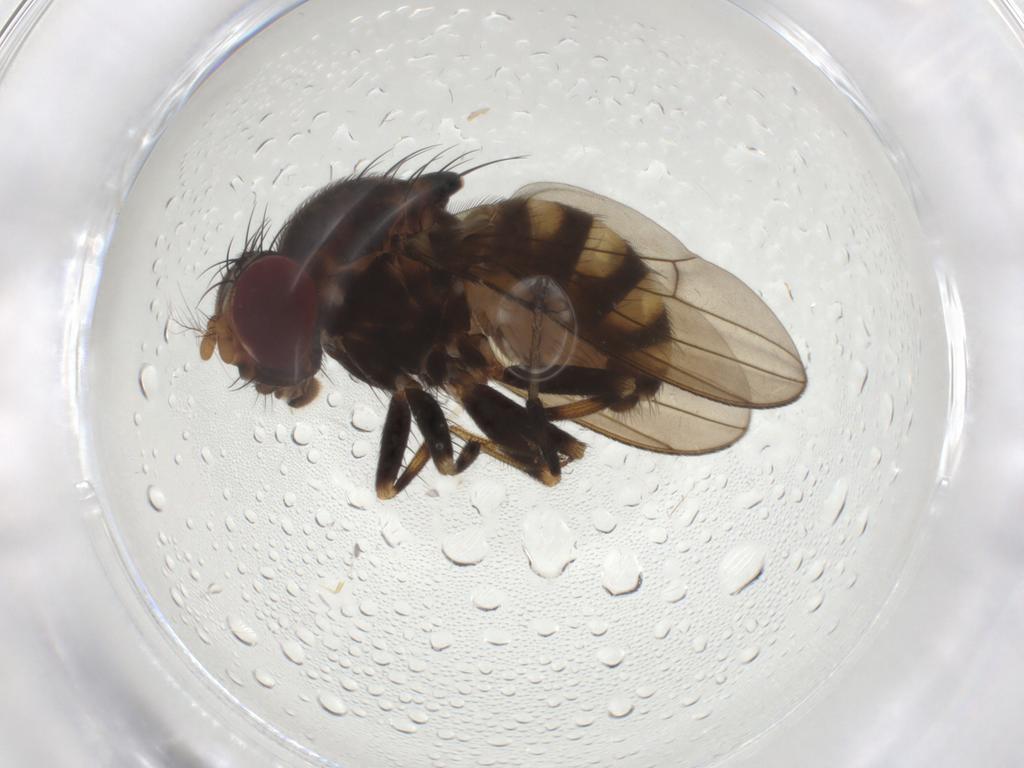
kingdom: Animalia
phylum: Arthropoda
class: Insecta
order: Diptera
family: Drosophilidae
